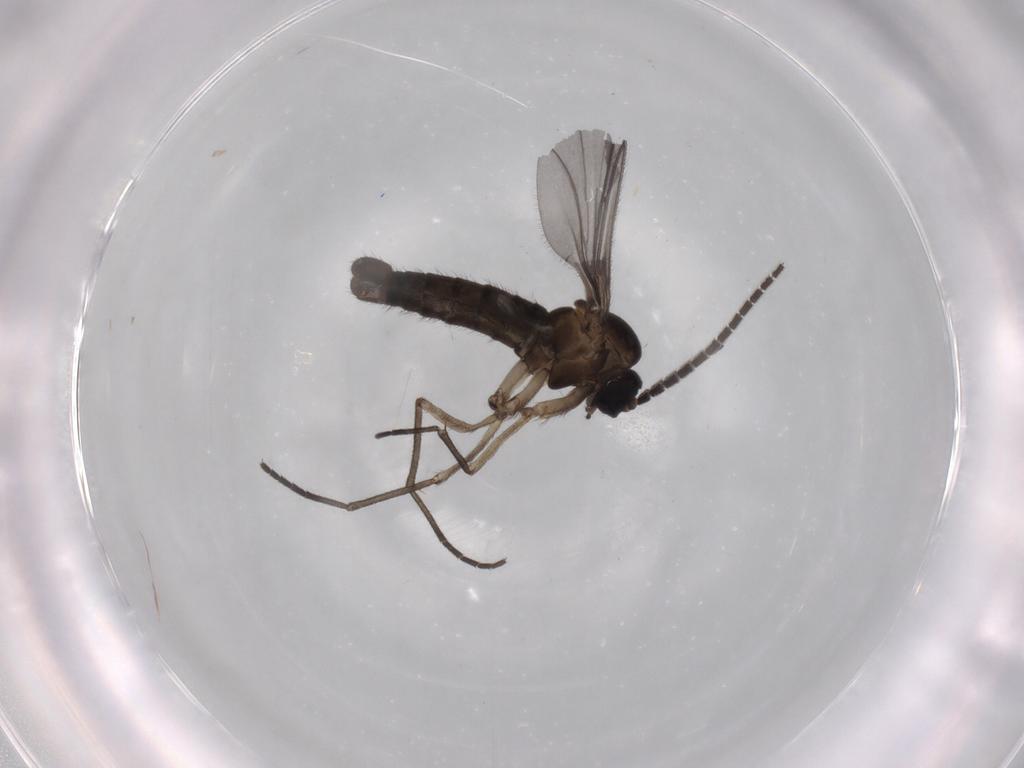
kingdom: Animalia
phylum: Arthropoda
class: Insecta
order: Diptera
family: Sciaridae
